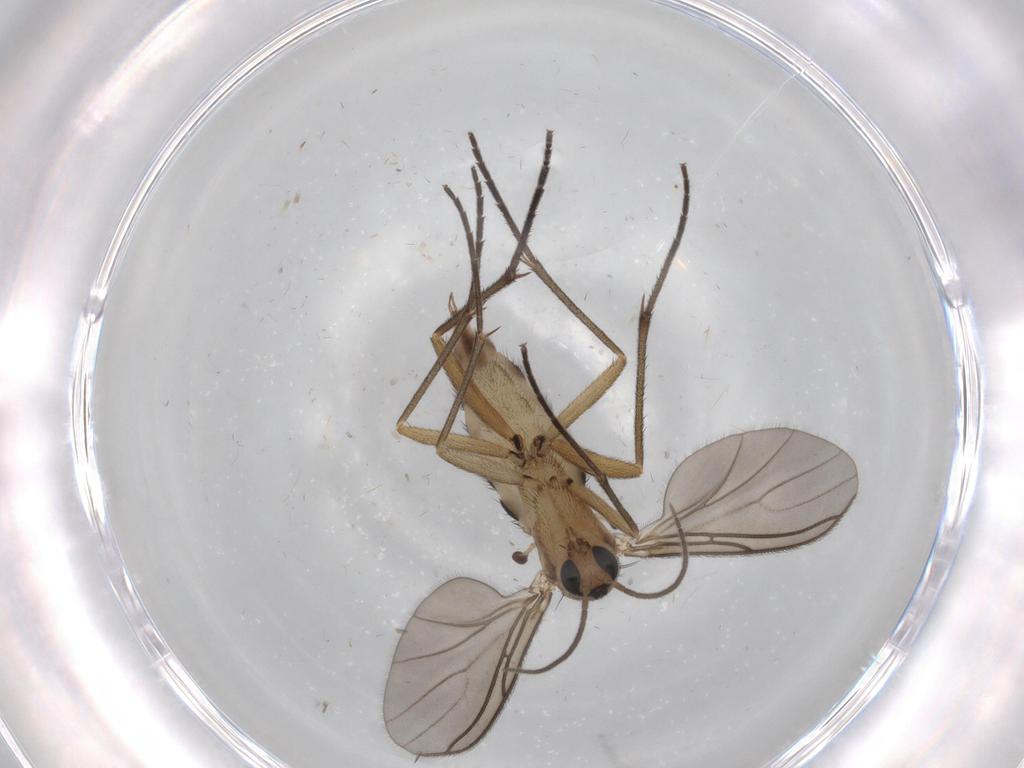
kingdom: Animalia
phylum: Arthropoda
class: Insecta
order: Diptera
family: Sciaridae
